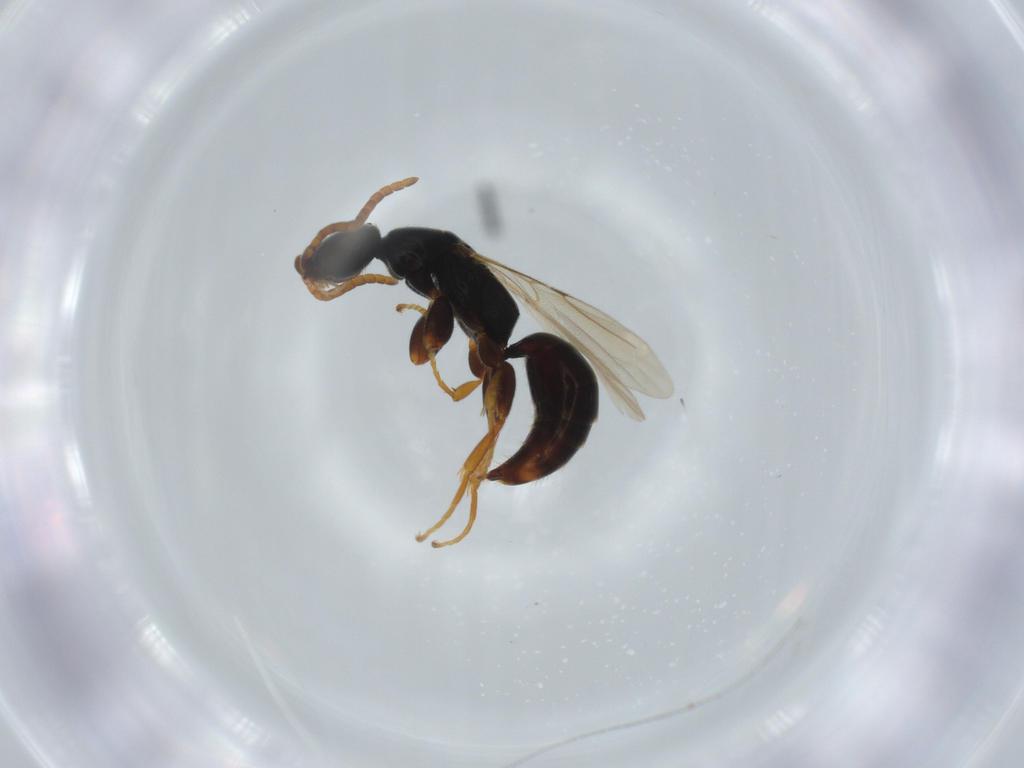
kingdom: Animalia
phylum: Arthropoda
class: Insecta
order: Hymenoptera
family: Bethylidae
